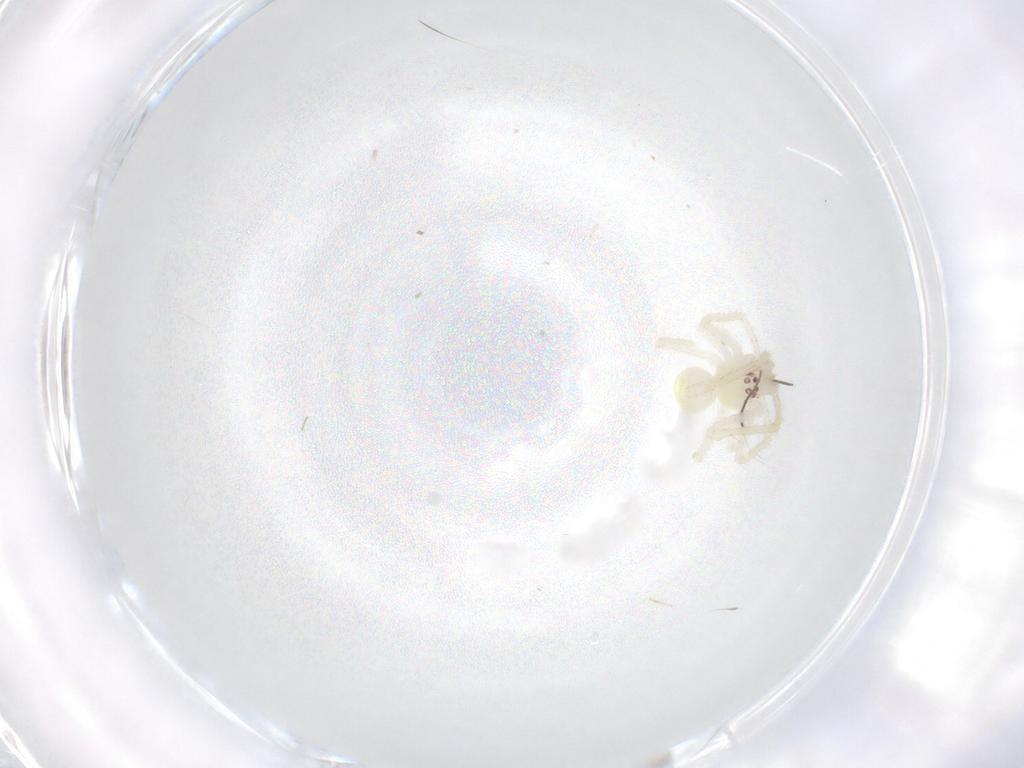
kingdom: Animalia
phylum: Arthropoda
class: Arachnida
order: Araneae
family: Theridiidae
